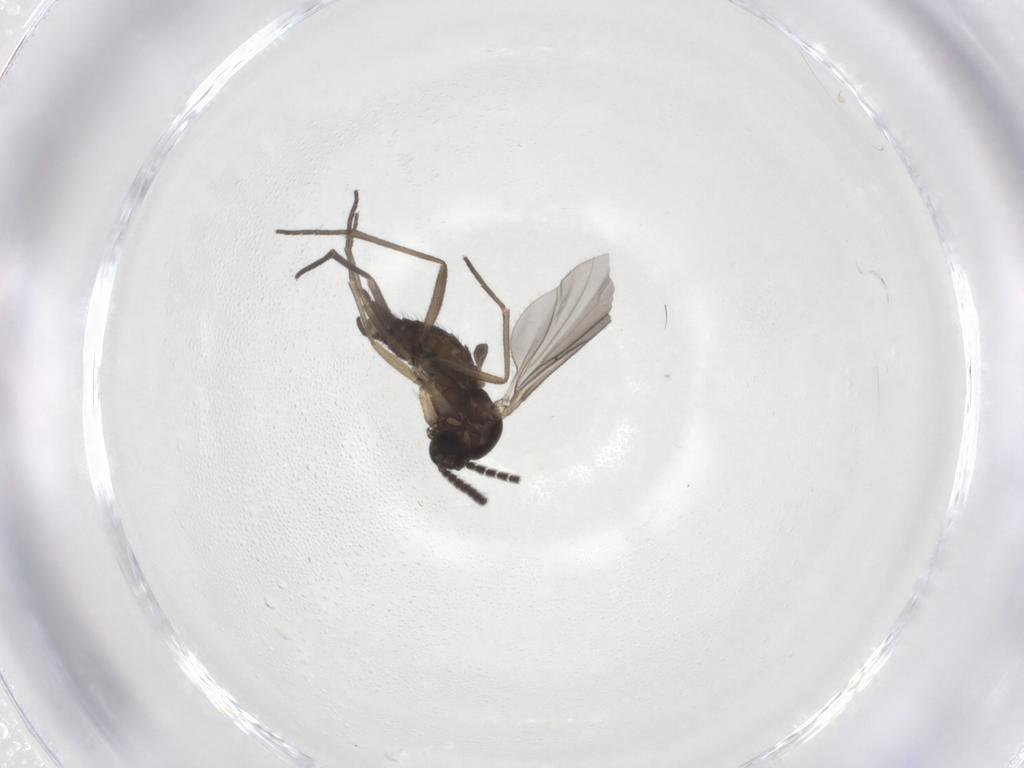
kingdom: Animalia
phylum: Arthropoda
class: Insecta
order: Diptera
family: Sciaridae
